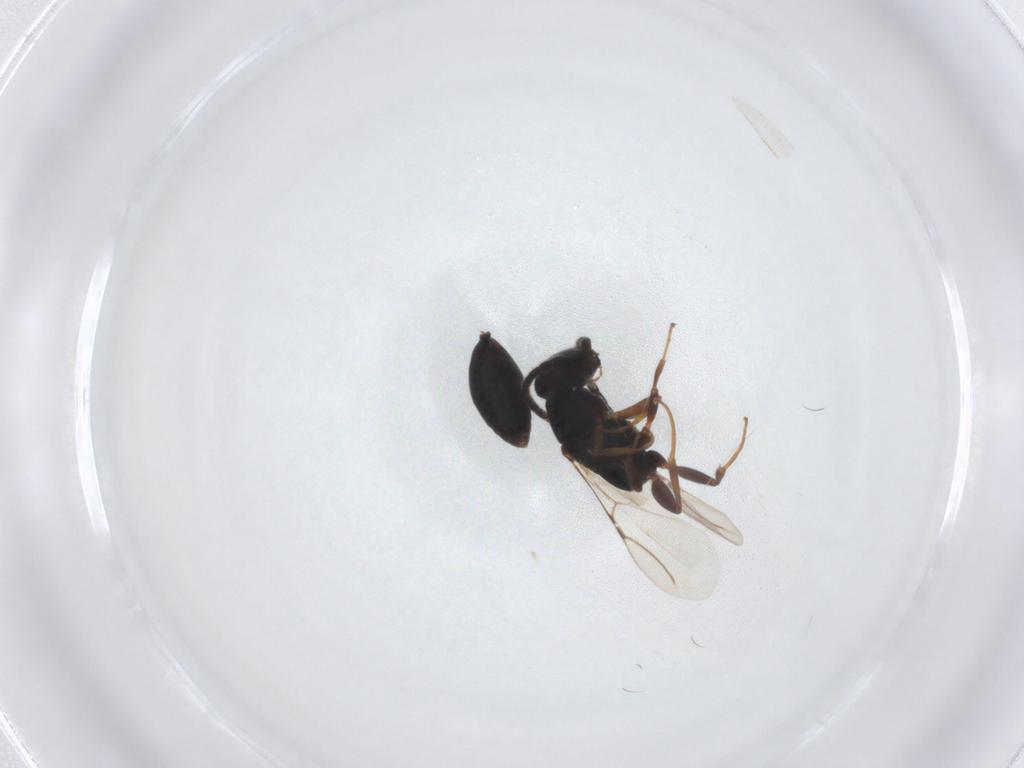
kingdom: Animalia
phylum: Arthropoda
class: Insecta
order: Hymenoptera
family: Bethylidae
